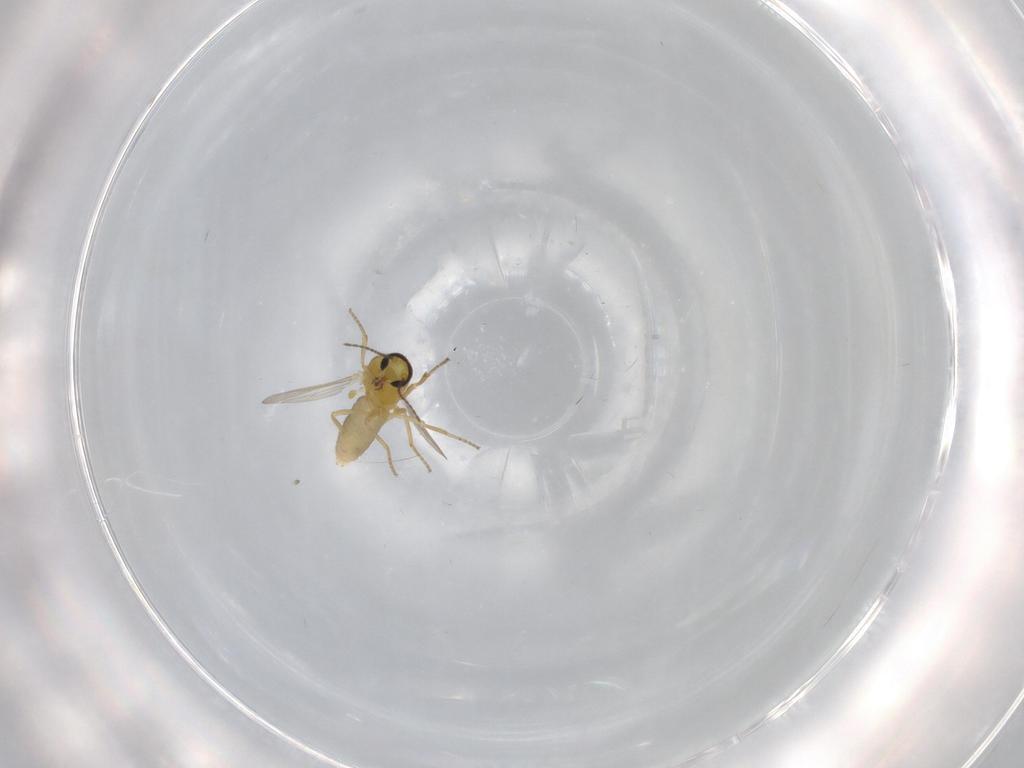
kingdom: Animalia
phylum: Arthropoda
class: Insecta
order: Diptera
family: Ceratopogonidae
